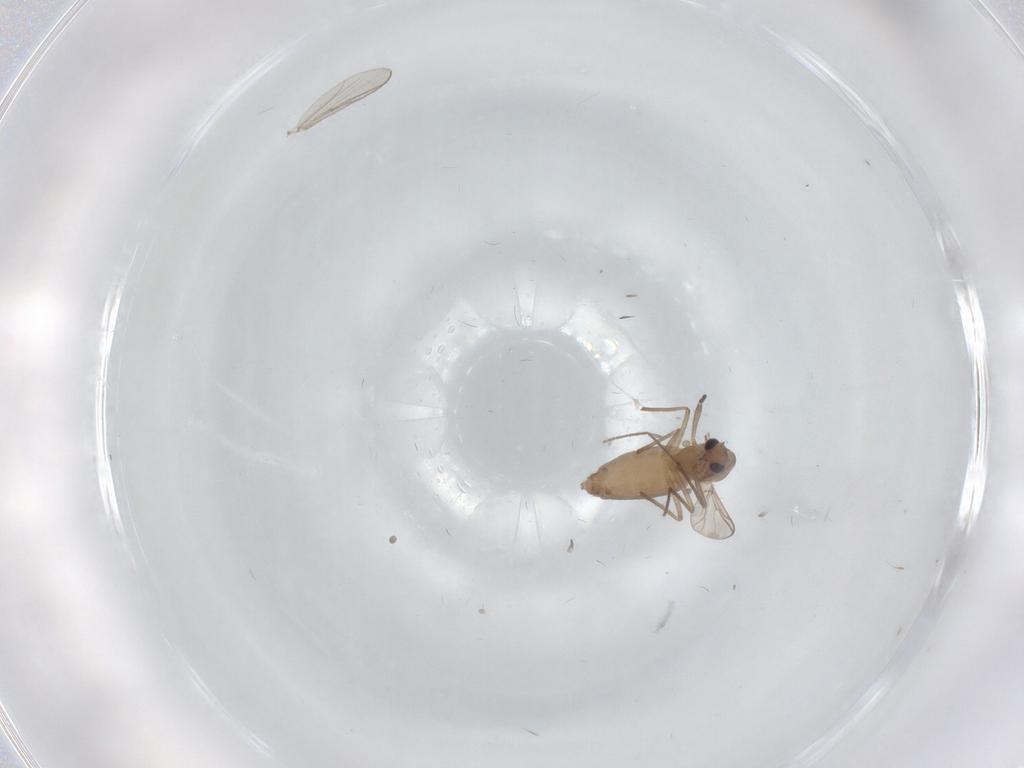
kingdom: Animalia
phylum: Arthropoda
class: Insecta
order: Diptera
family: Chironomidae
